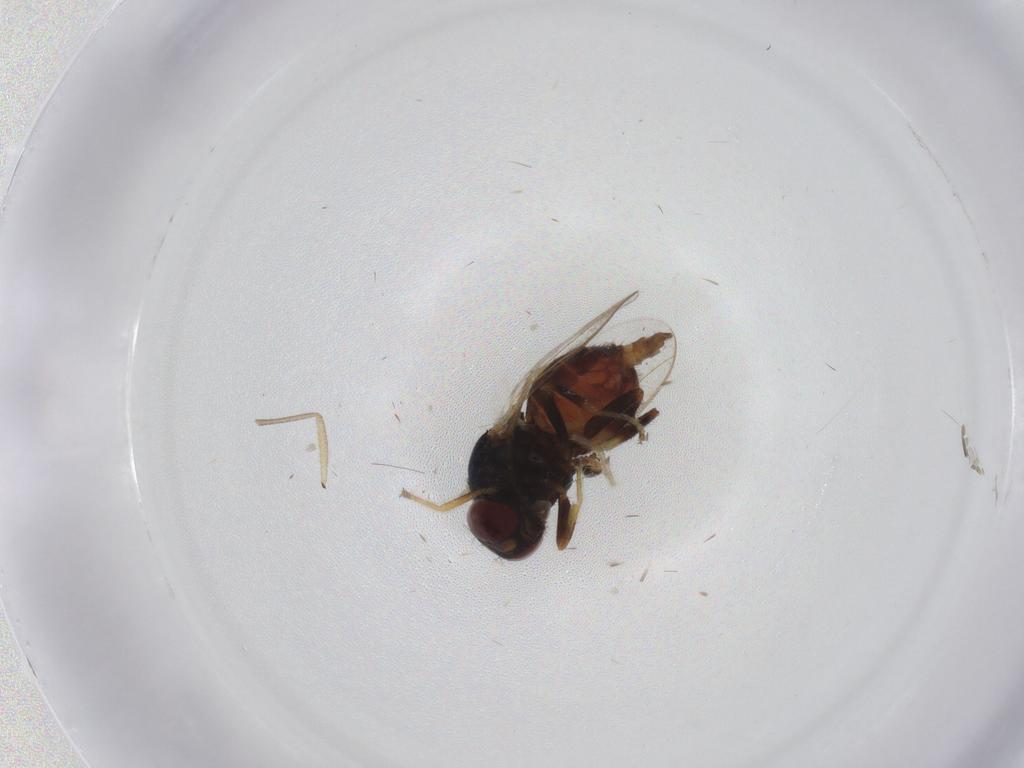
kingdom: Animalia
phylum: Arthropoda
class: Insecta
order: Diptera
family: Chloropidae
